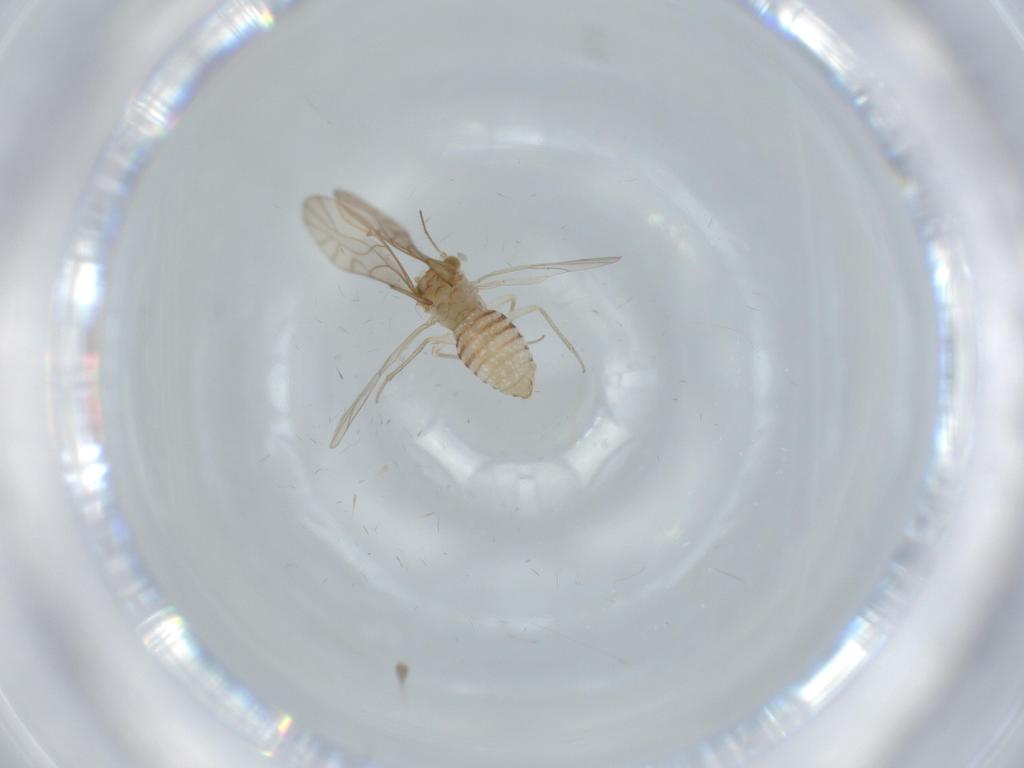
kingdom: Animalia
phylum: Arthropoda
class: Insecta
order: Psocodea
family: Lachesillidae
